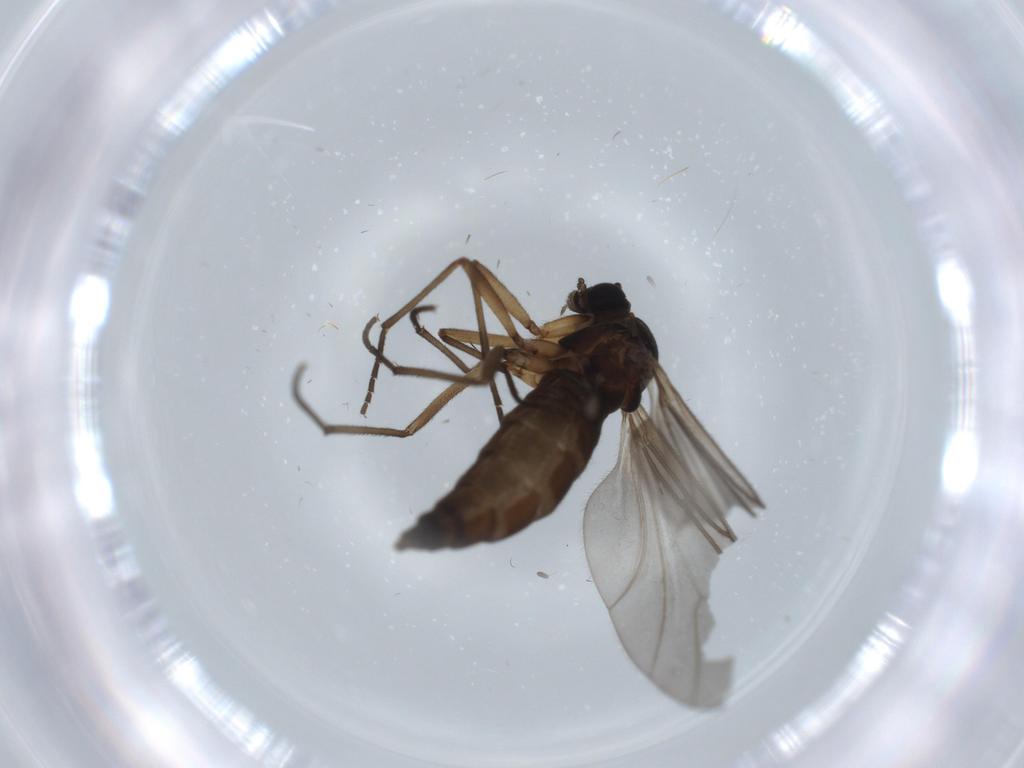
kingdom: Animalia
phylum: Arthropoda
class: Insecta
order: Diptera
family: Sciaridae
